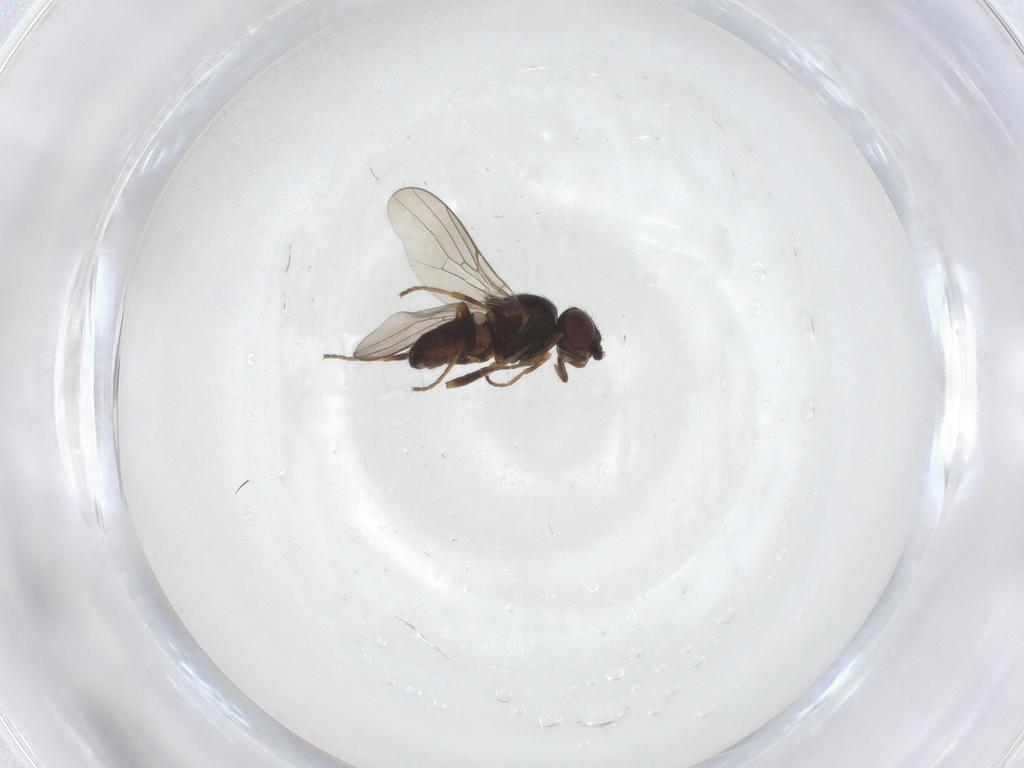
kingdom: Animalia
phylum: Arthropoda
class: Insecta
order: Diptera
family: Chloropidae
